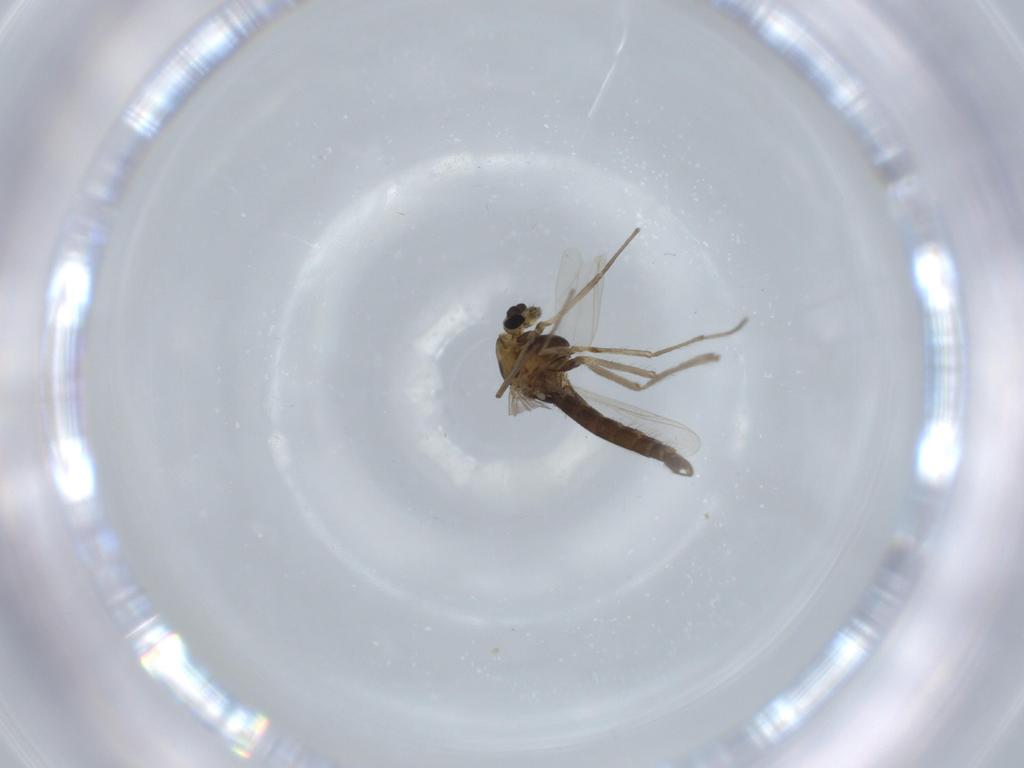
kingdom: Animalia
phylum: Arthropoda
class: Insecta
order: Diptera
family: Chironomidae
